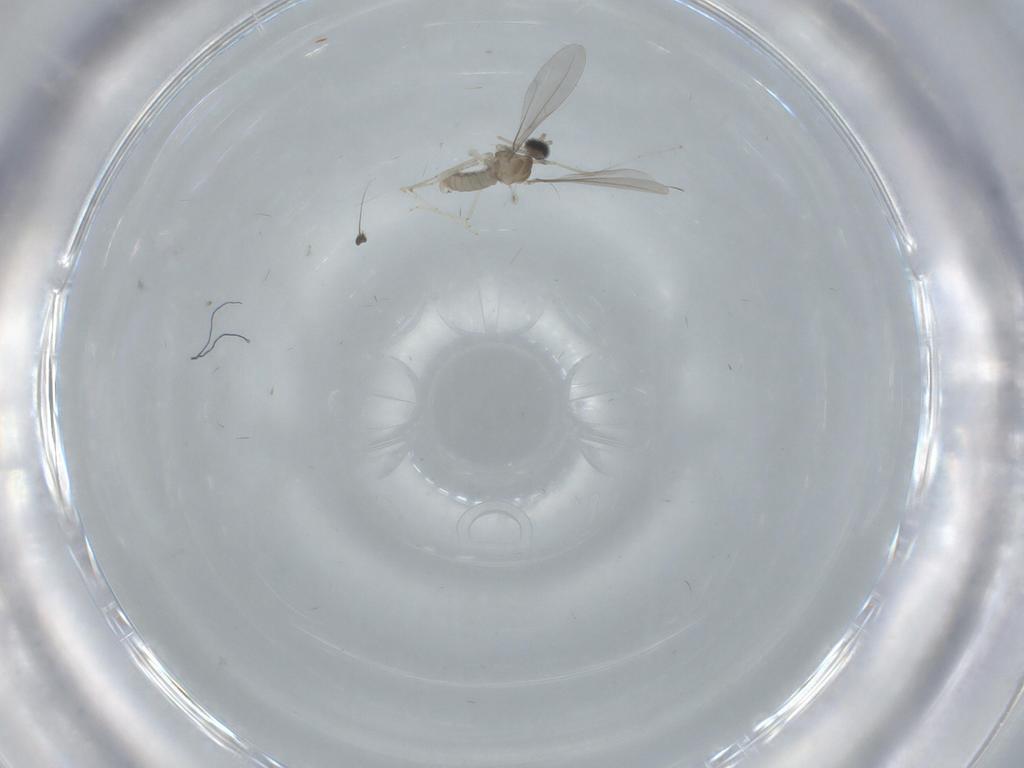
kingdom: Animalia
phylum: Arthropoda
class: Insecta
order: Diptera
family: Cecidomyiidae
